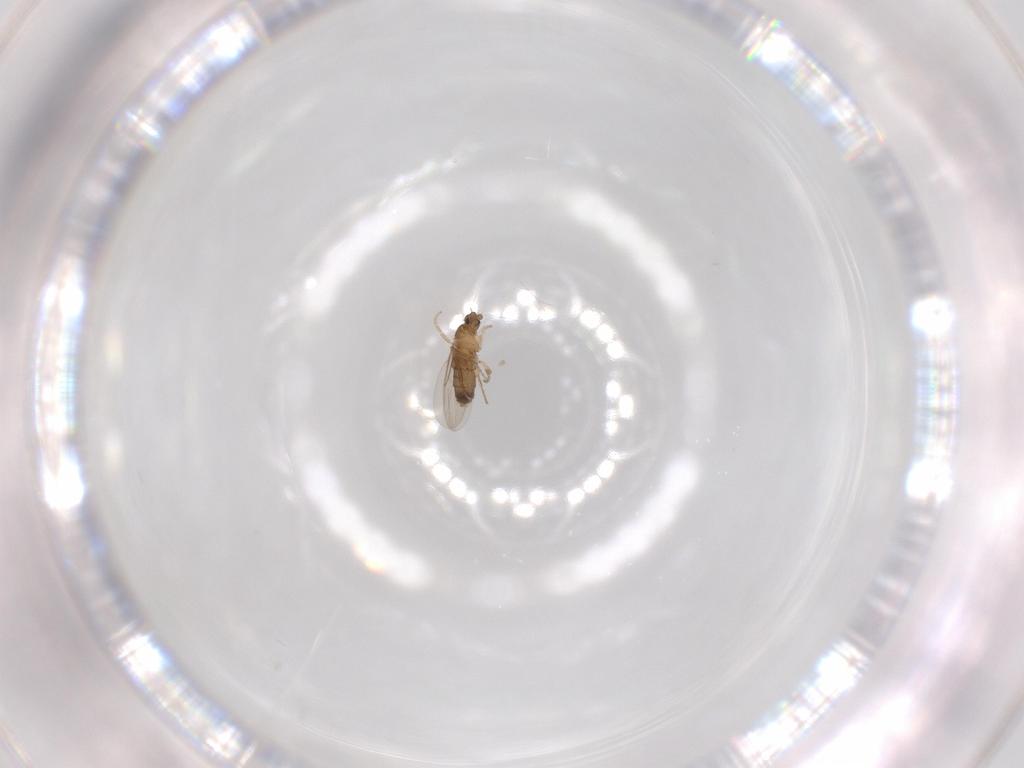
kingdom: Animalia
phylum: Arthropoda
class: Insecta
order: Diptera
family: Phoridae
